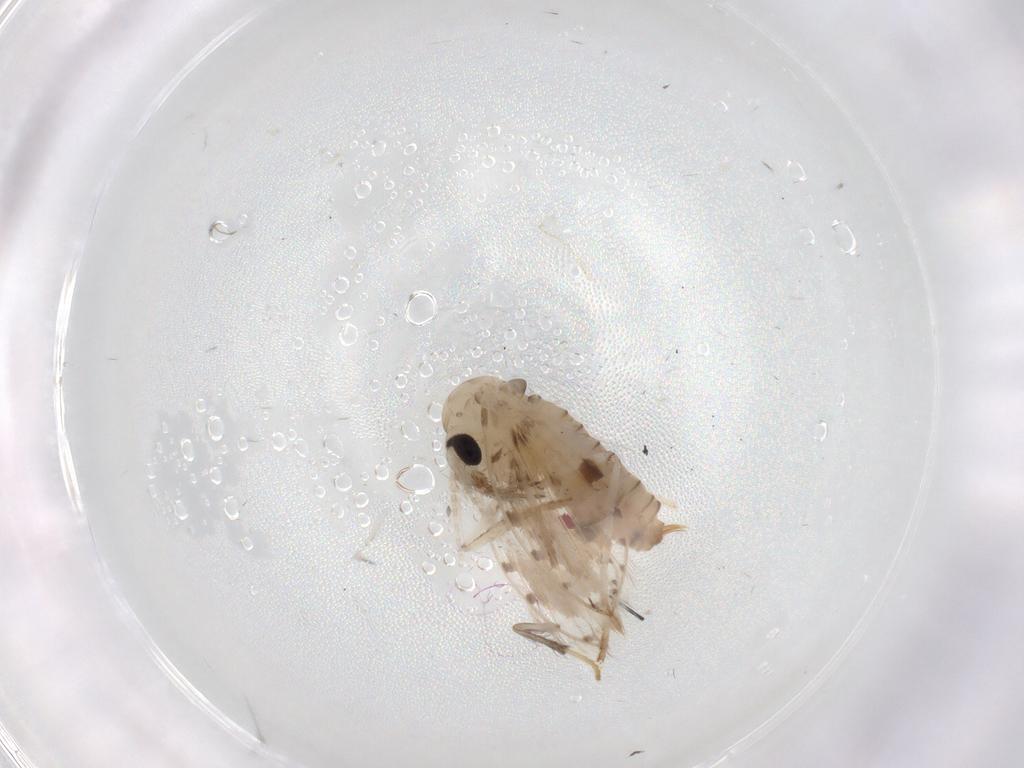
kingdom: Animalia
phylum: Arthropoda
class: Insecta
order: Diptera
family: Psychodidae
